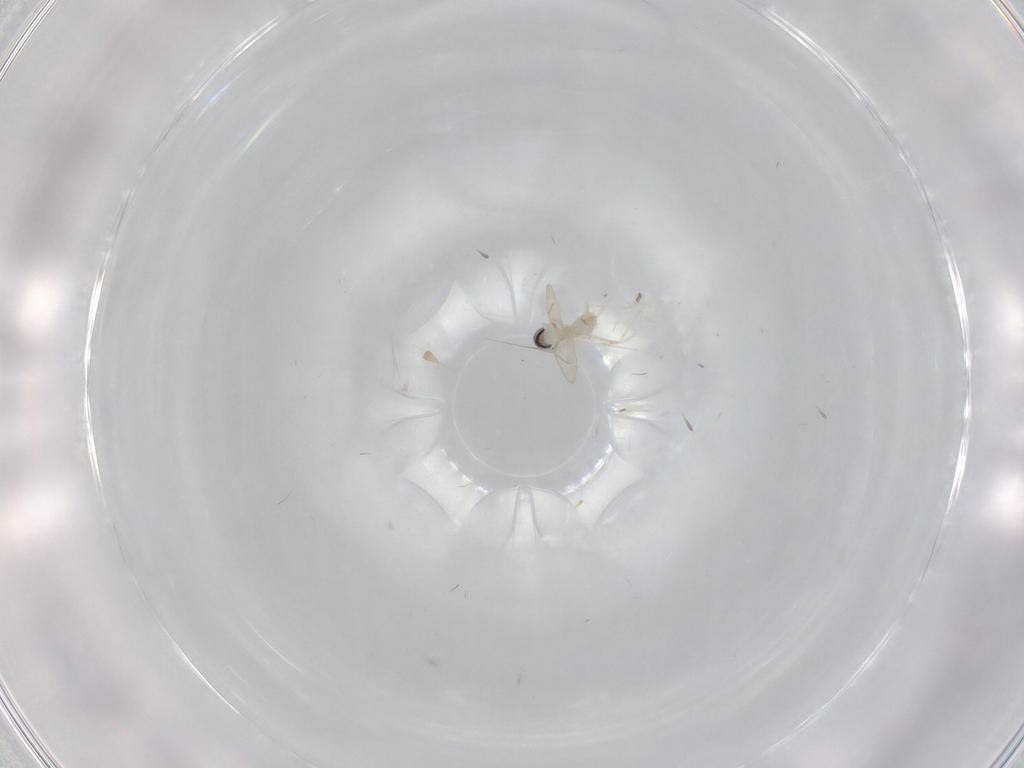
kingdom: Animalia
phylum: Arthropoda
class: Insecta
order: Diptera
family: Cecidomyiidae
